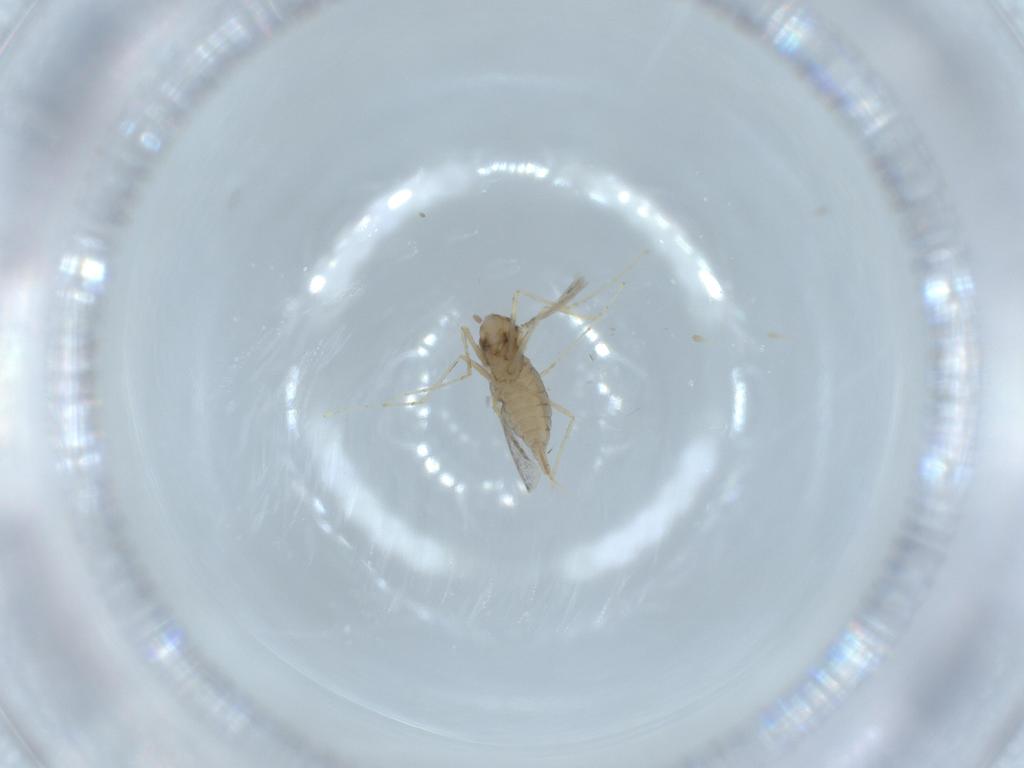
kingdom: Animalia
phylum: Arthropoda
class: Insecta
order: Diptera
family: Cecidomyiidae
